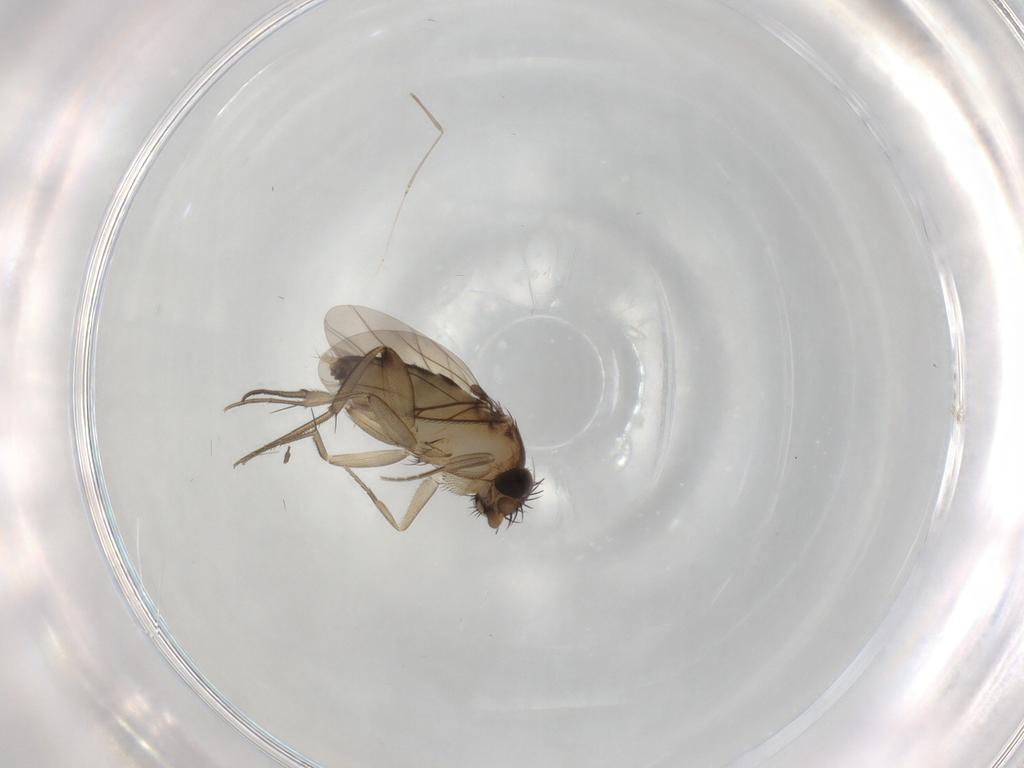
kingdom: Animalia
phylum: Arthropoda
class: Insecta
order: Diptera
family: Phoridae
